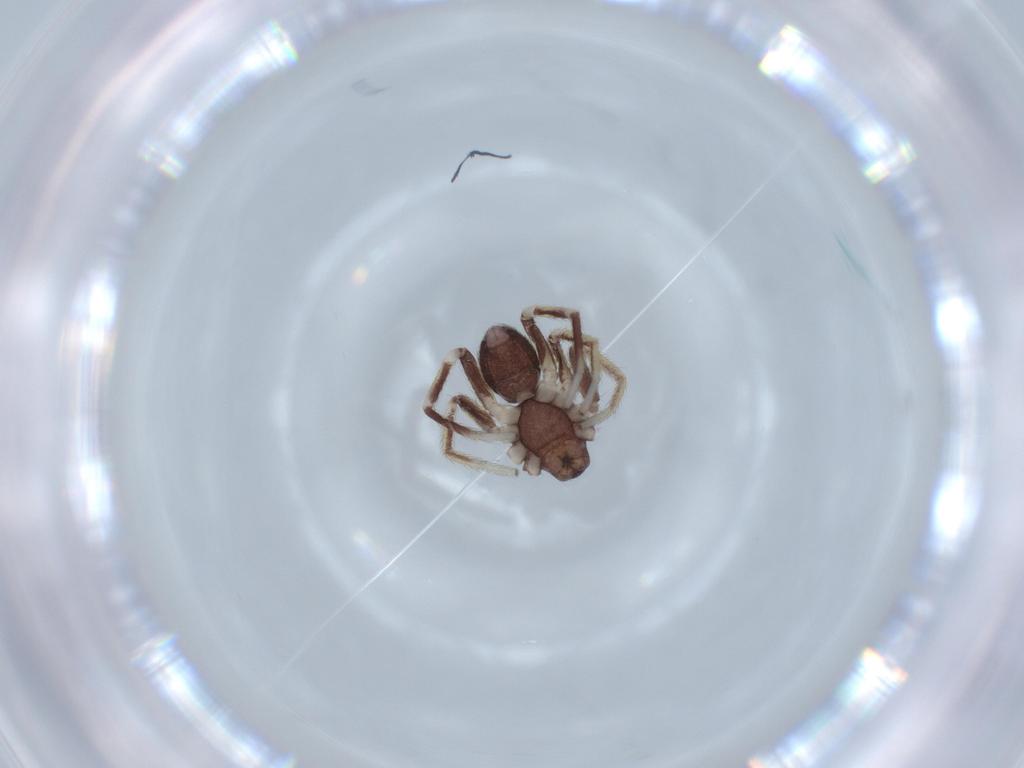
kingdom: Animalia
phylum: Arthropoda
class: Arachnida
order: Araneae
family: Corinnidae
